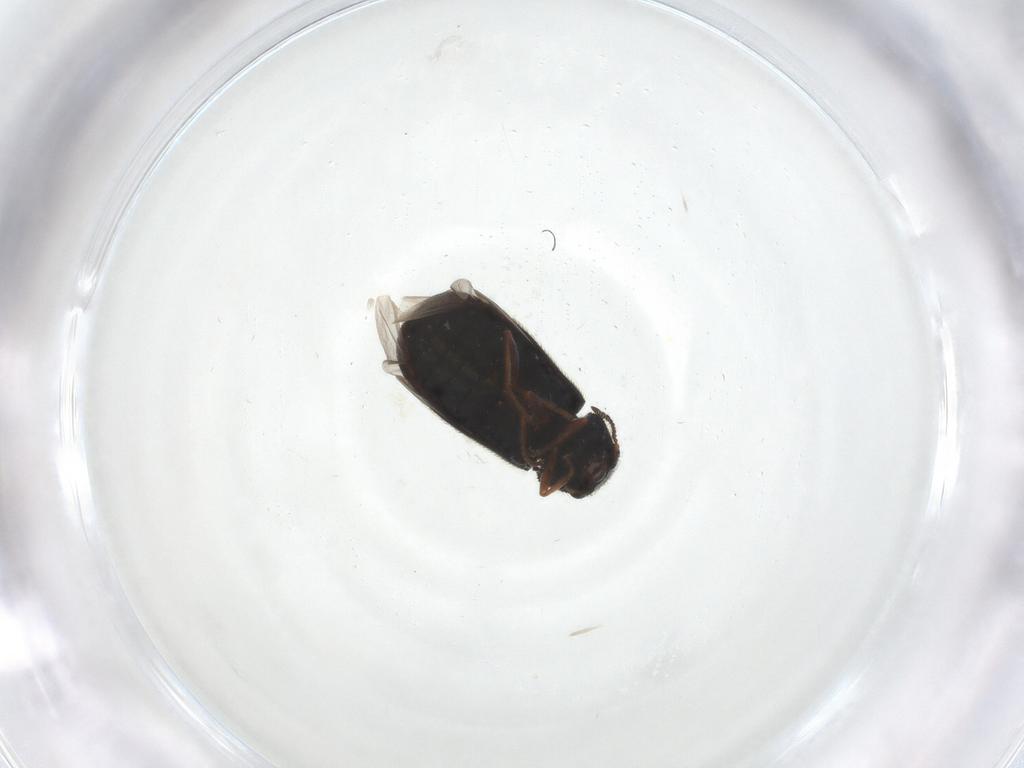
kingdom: Animalia
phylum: Arthropoda
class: Insecta
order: Coleoptera
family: Melyridae
